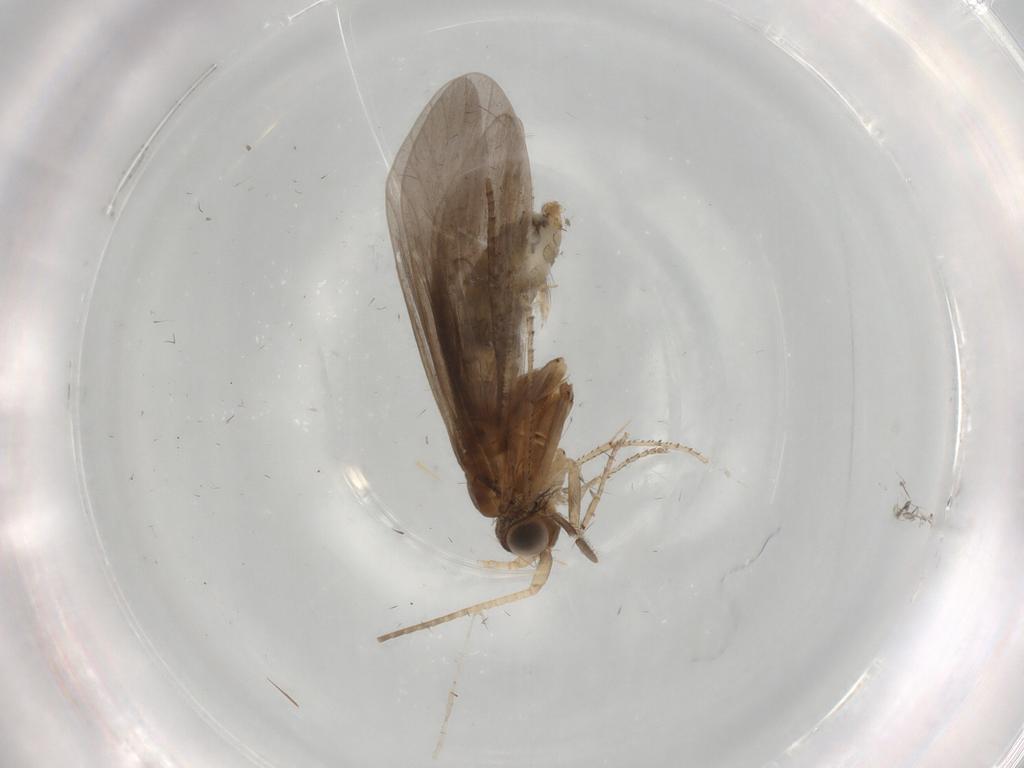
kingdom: Animalia
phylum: Arthropoda
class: Insecta
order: Trichoptera
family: Helicopsychidae
